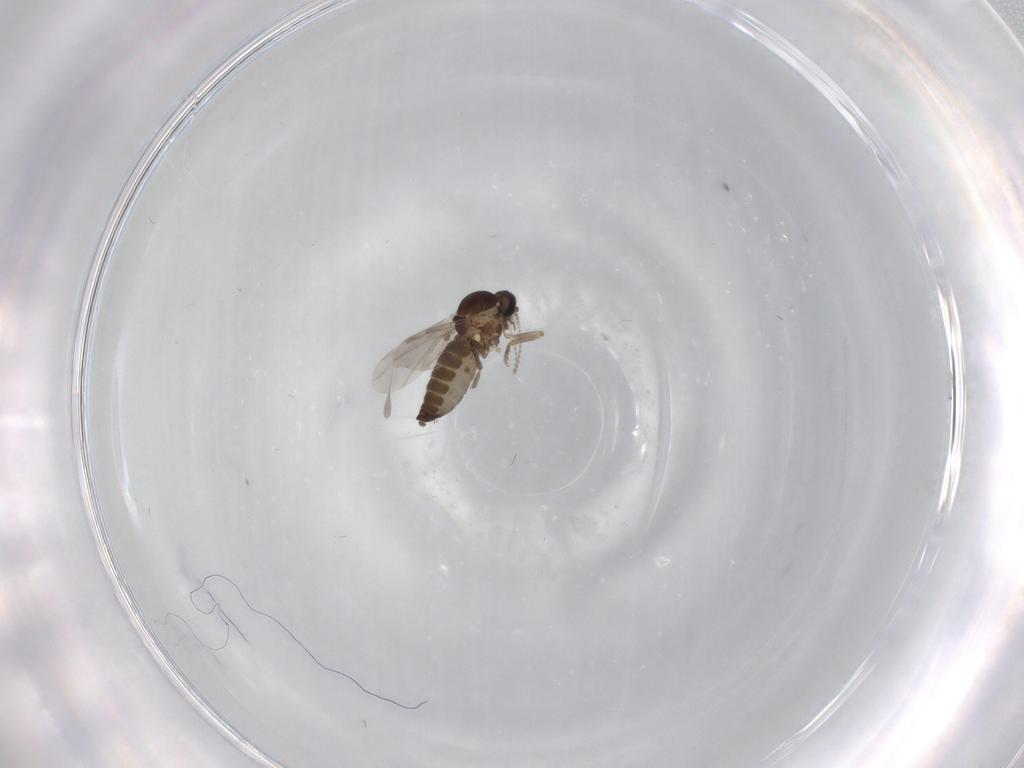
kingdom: Animalia
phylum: Arthropoda
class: Insecta
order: Diptera
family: Ceratopogonidae
